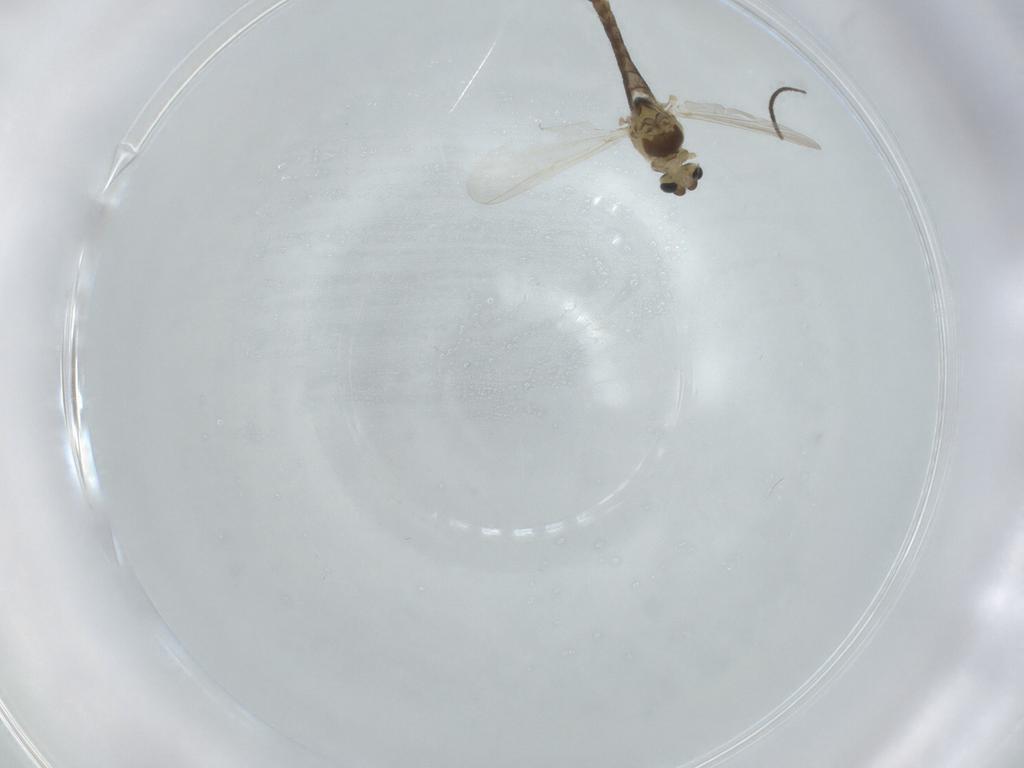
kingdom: Animalia
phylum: Arthropoda
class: Insecta
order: Diptera
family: Chironomidae
